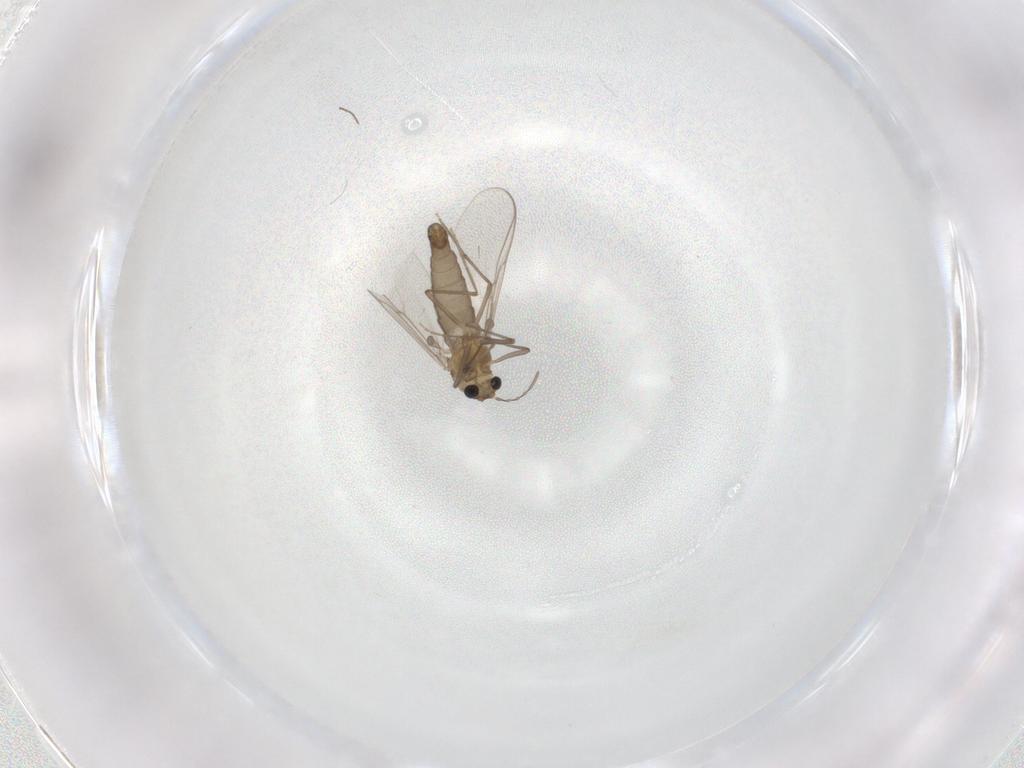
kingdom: Animalia
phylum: Arthropoda
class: Insecta
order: Diptera
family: Chironomidae
